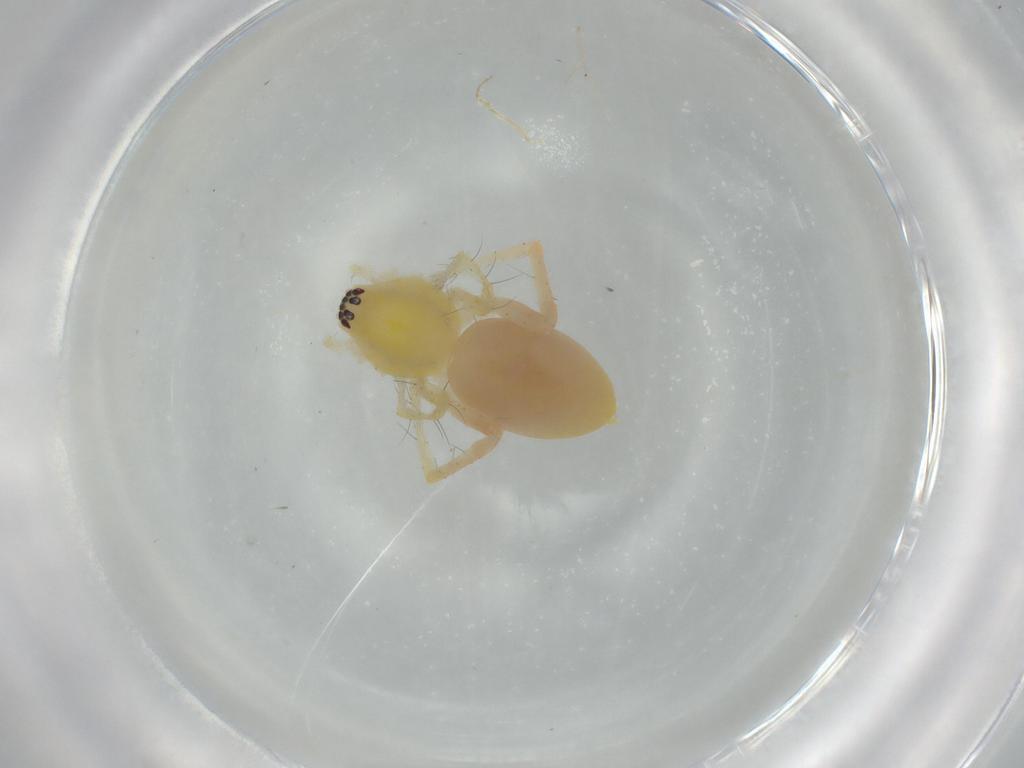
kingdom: Animalia
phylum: Arthropoda
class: Arachnida
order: Araneae
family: Anyphaenidae
